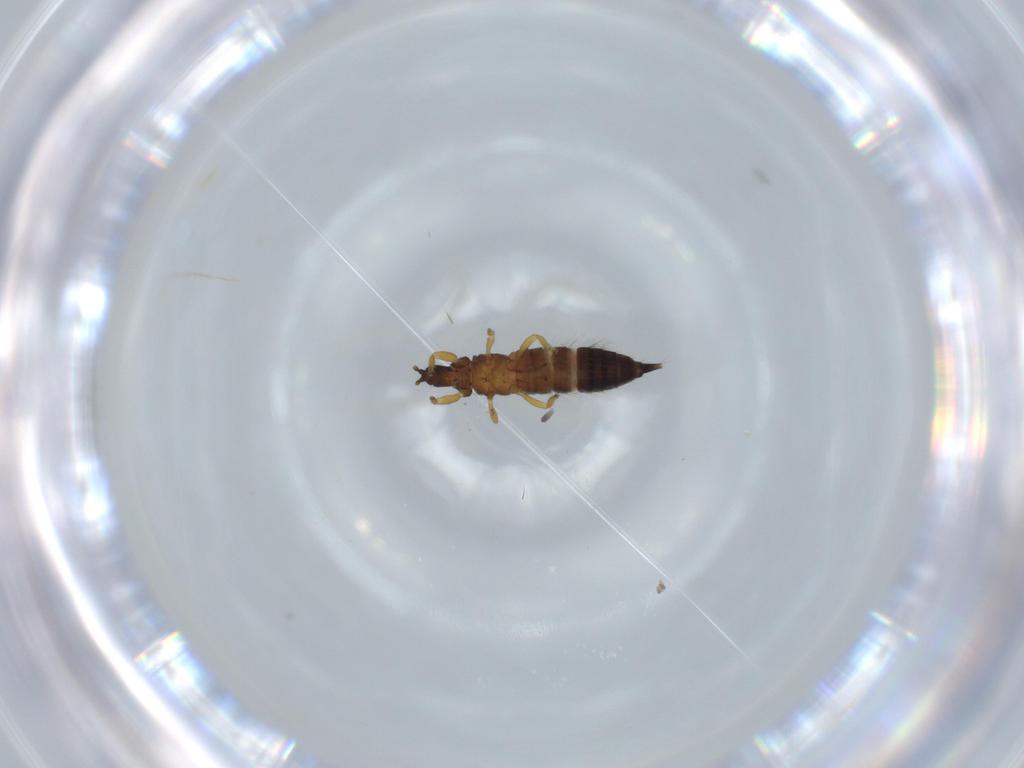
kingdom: Animalia
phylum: Arthropoda
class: Insecta
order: Thysanoptera
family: Phlaeothripidae
